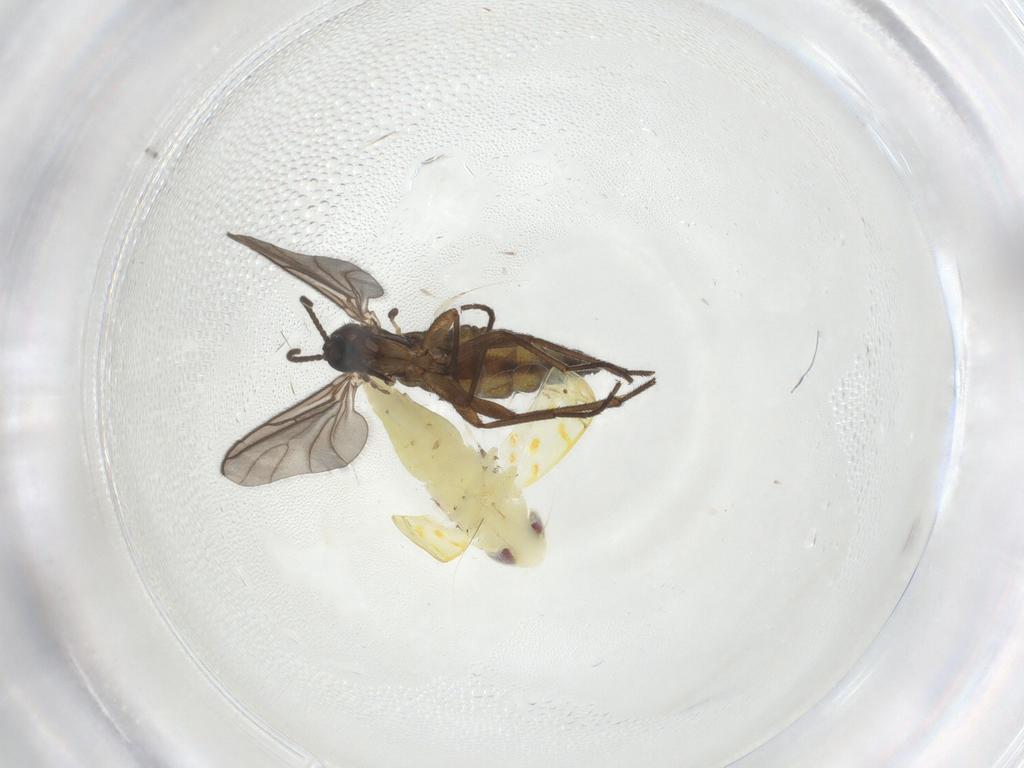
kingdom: Animalia
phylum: Arthropoda
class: Insecta
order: Diptera
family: Sciaridae
